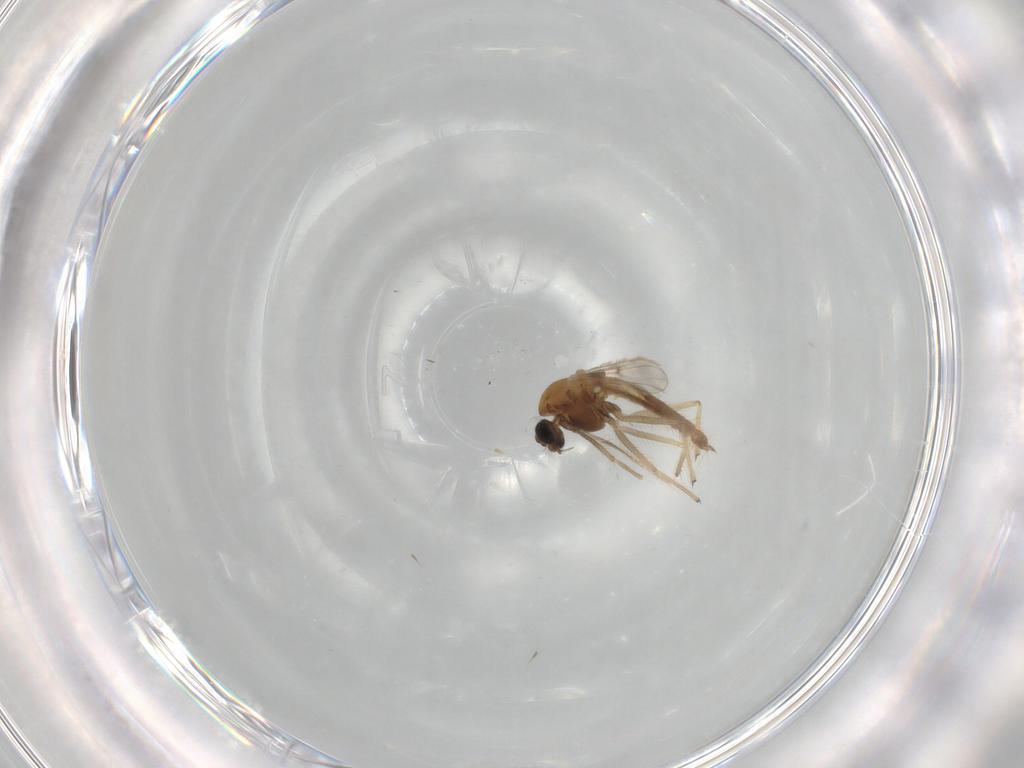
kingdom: Animalia
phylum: Arthropoda
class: Insecta
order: Diptera
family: Chironomidae
